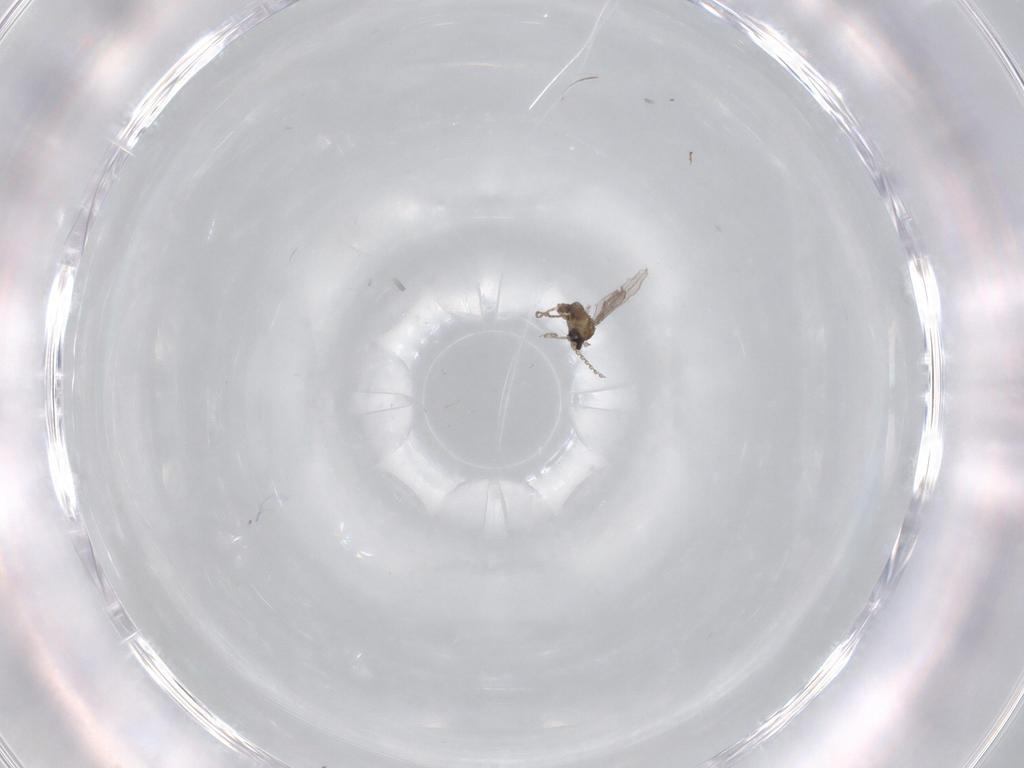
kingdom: Animalia
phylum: Arthropoda
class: Insecta
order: Diptera
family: Cecidomyiidae
